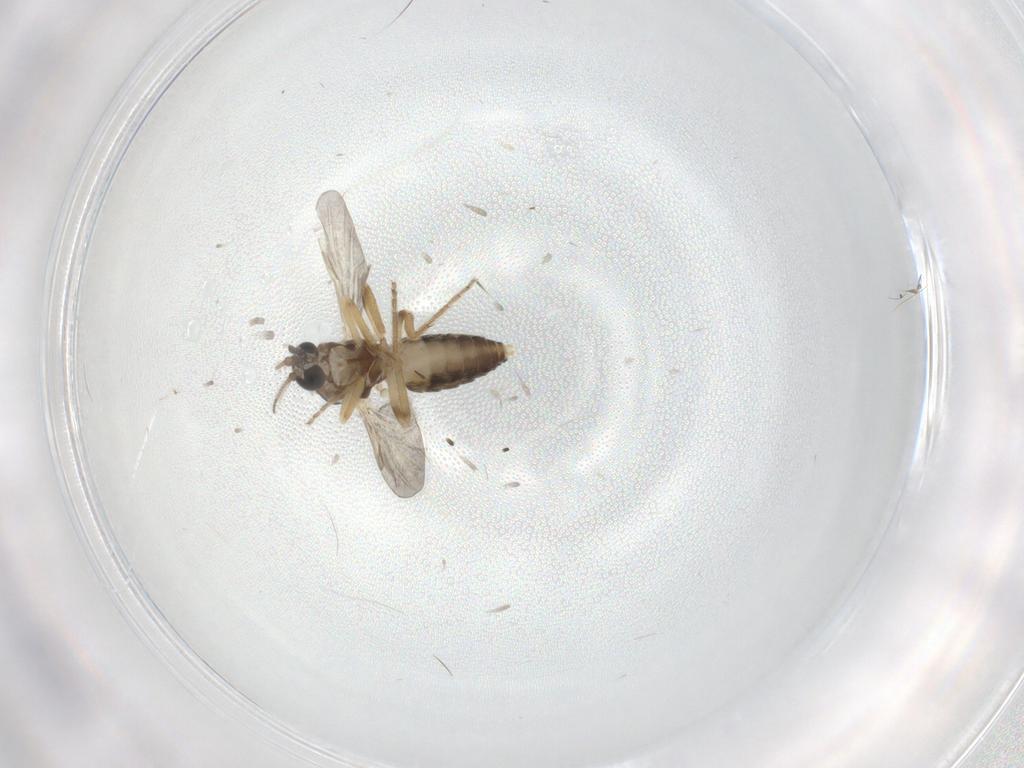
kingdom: Animalia
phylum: Arthropoda
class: Insecta
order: Diptera
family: Ceratopogonidae
